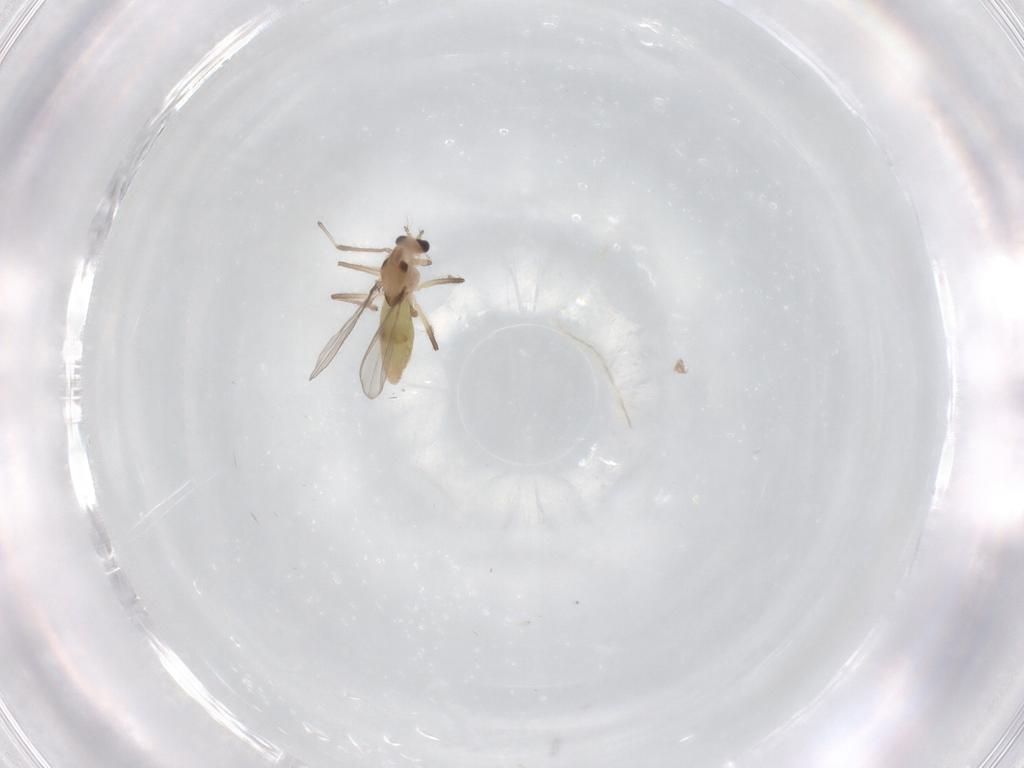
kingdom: Animalia
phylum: Arthropoda
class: Insecta
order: Diptera
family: Chironomidae
